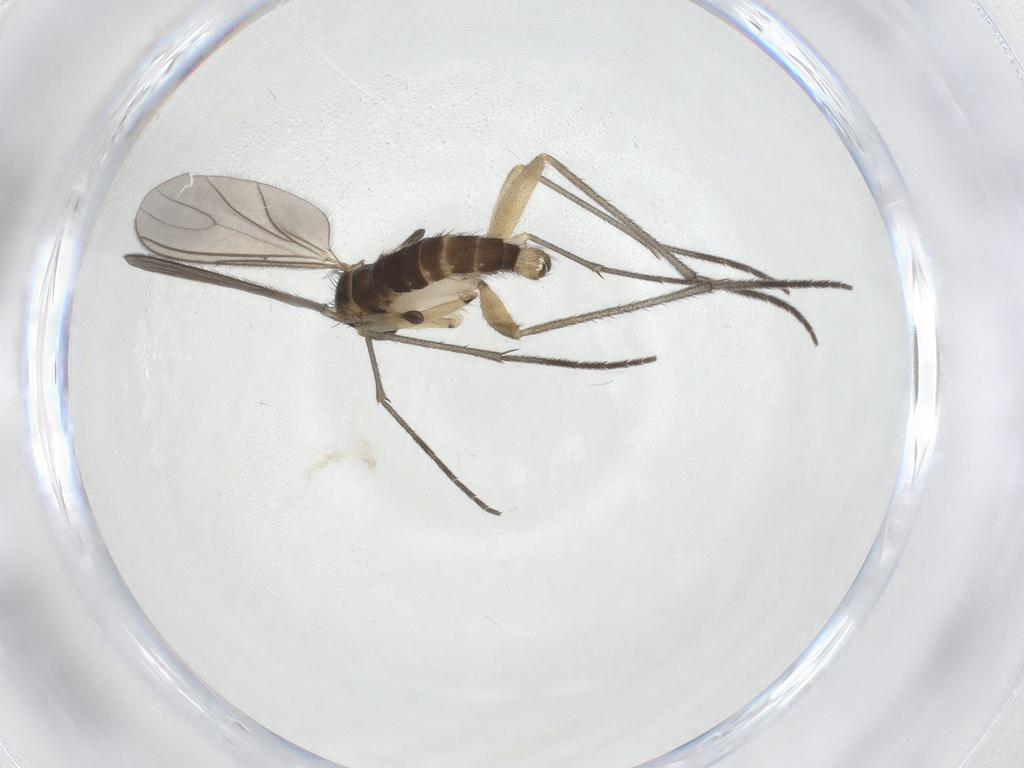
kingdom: Animalia
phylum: Arthropoda
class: Insecta
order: Diptera
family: Sciaridae
